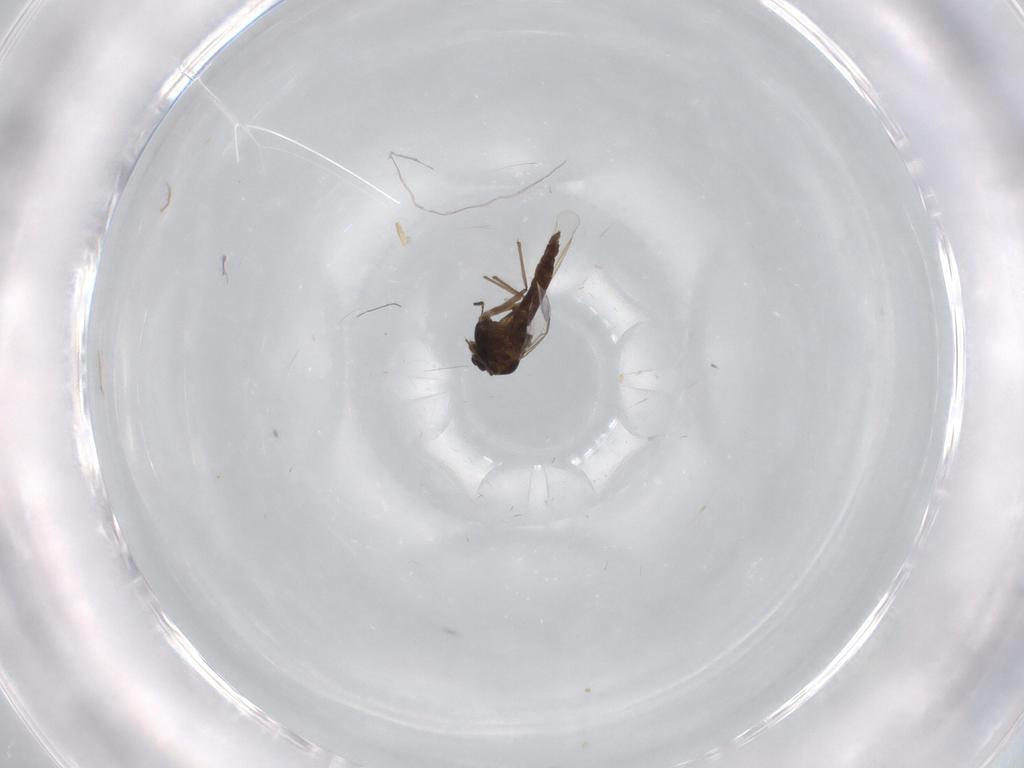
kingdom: Animalia
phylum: Arthropoda
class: Insecta
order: Diptera
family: Chironomidae
